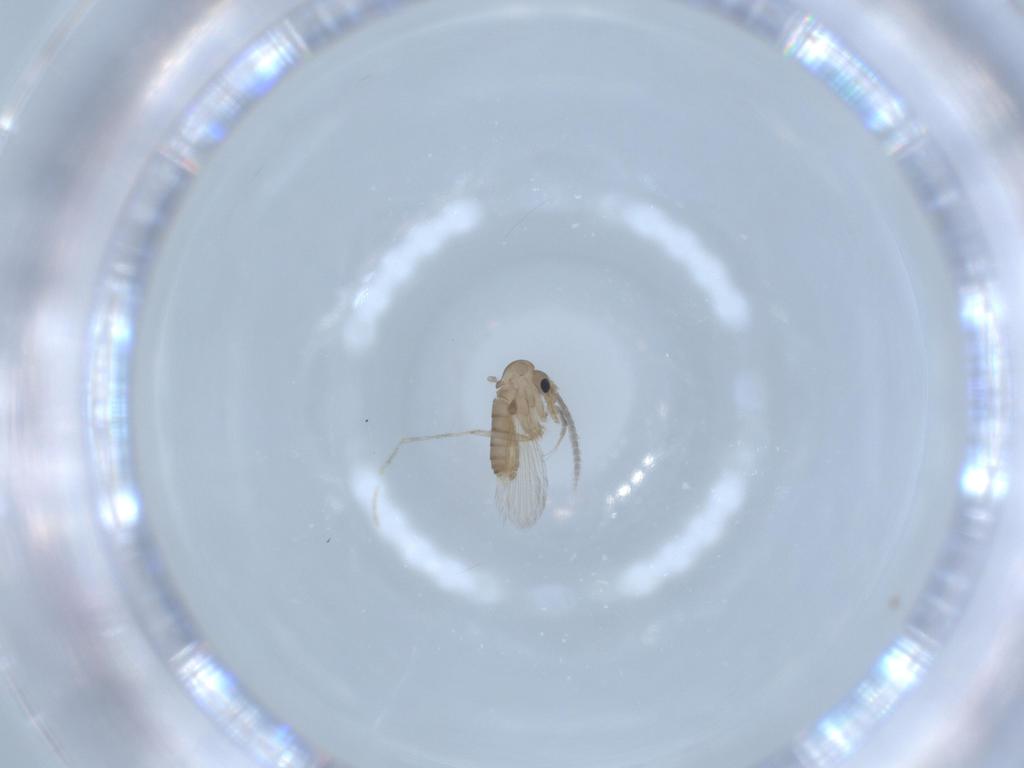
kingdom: Animalia
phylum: Arthropoda
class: Insecta
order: Diptera
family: Psychodidae
